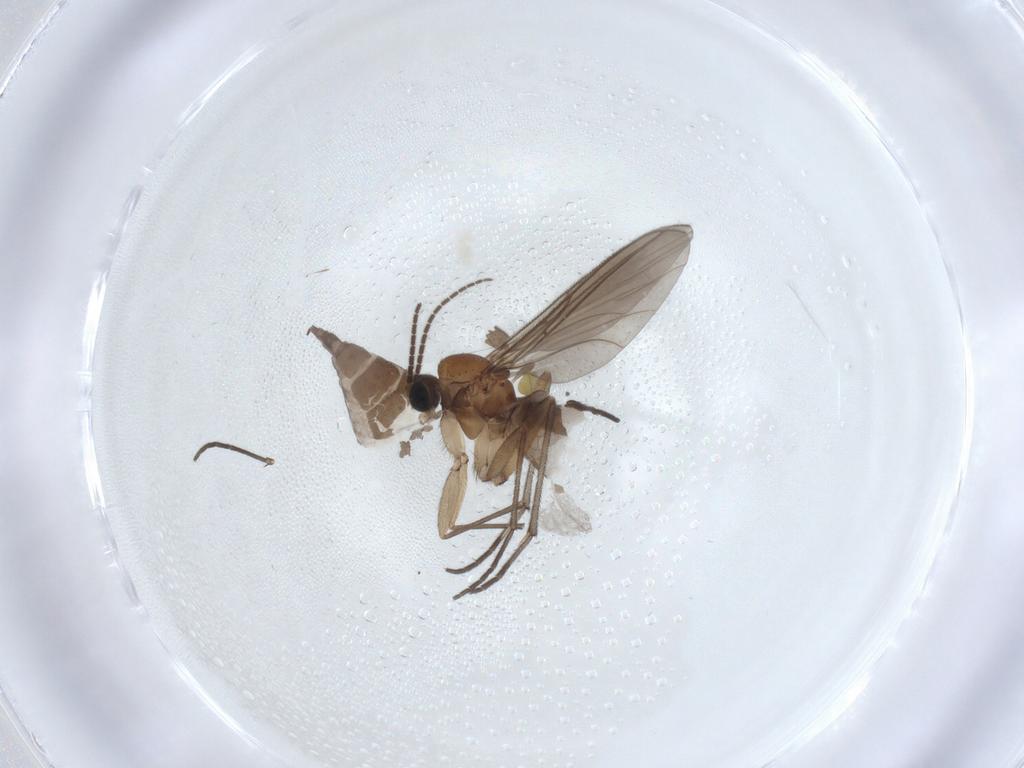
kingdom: Animalia
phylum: Arthropoda
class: Insecta
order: Diptera
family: Sciaridae
